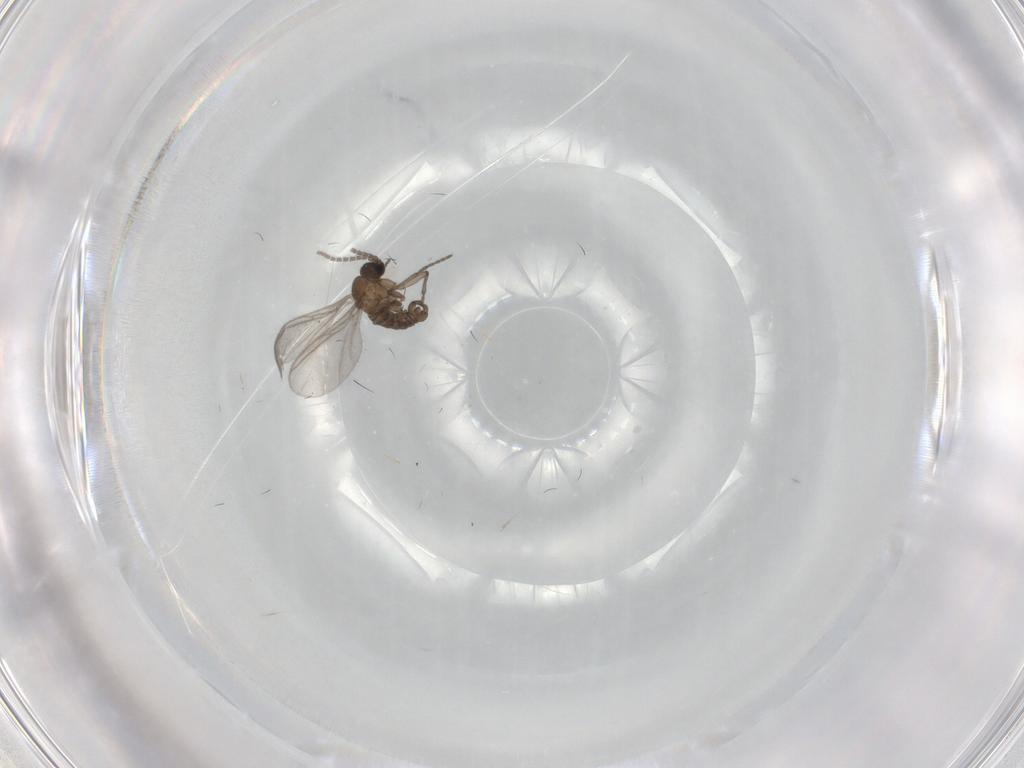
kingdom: Animalia
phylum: Arthropoda
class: Insecta
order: Diptera
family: Sciaridae
